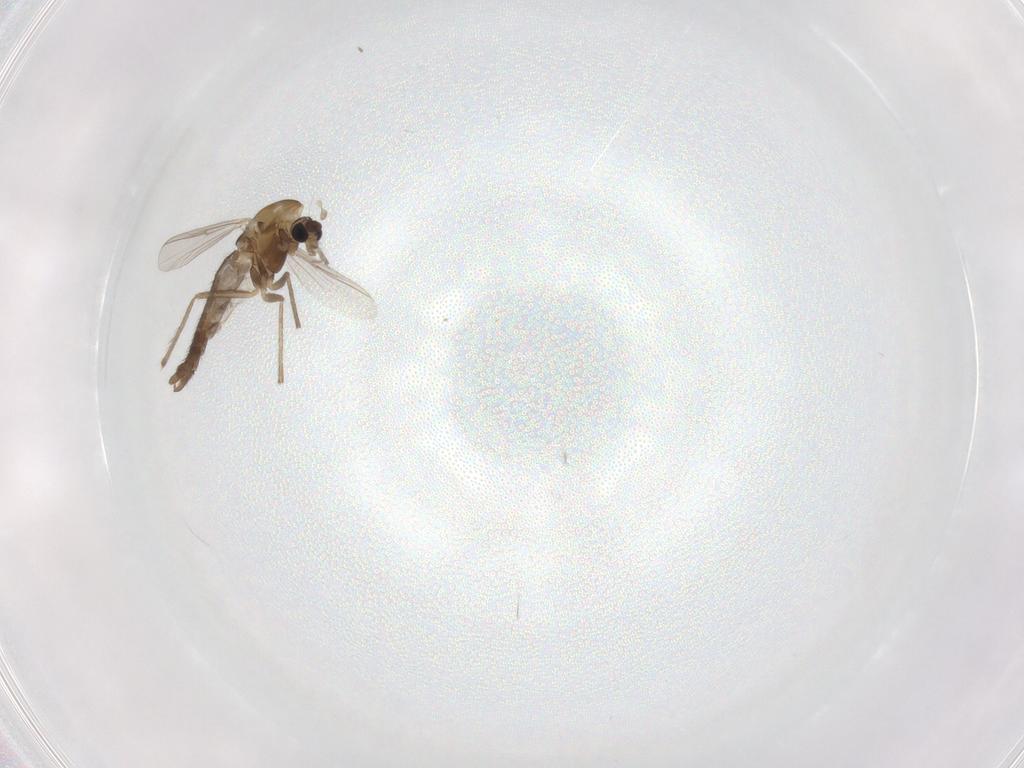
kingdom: Animalia
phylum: Arthropoda
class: Insecta
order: Diptera
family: Chironomidae
